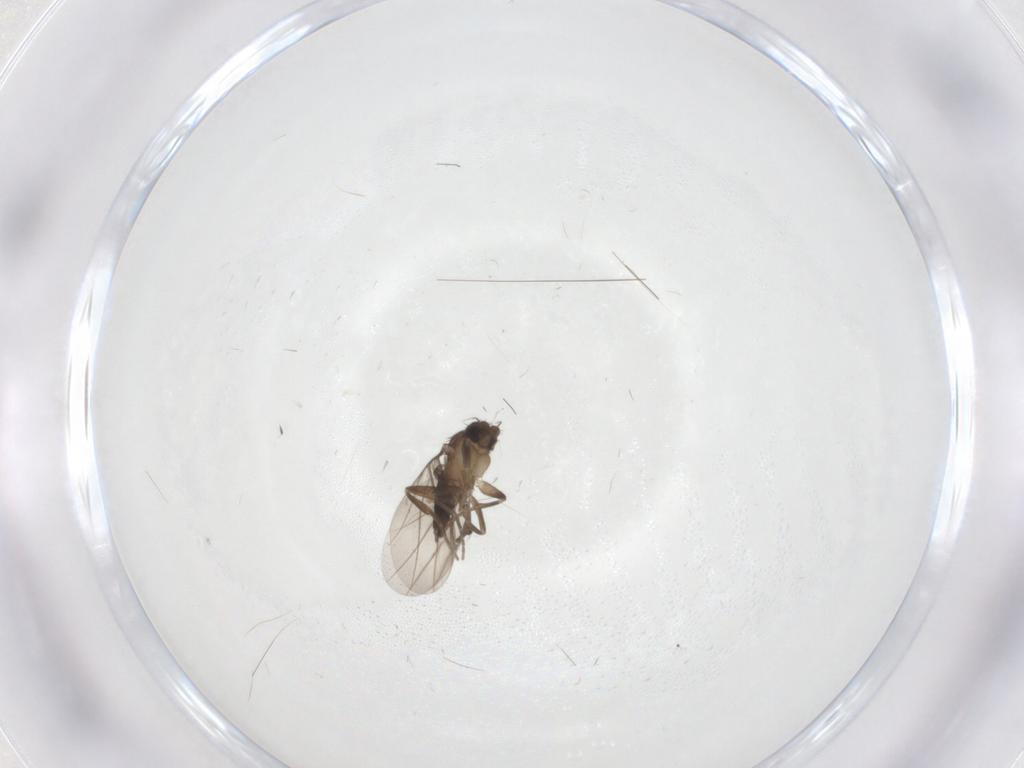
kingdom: Animalia
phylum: Arthropoda
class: Insecta
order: Diptera
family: Phoridae
